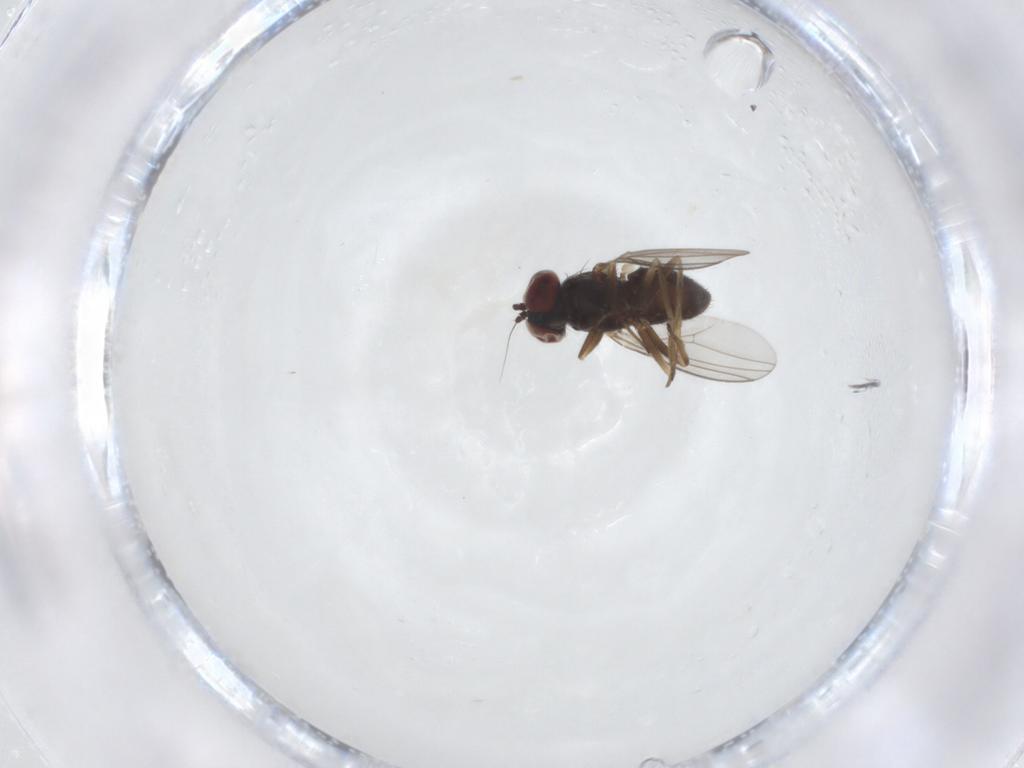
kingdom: Animalia
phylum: Arthropoda
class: Insecta
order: Diptera
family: Dolichopodidae
